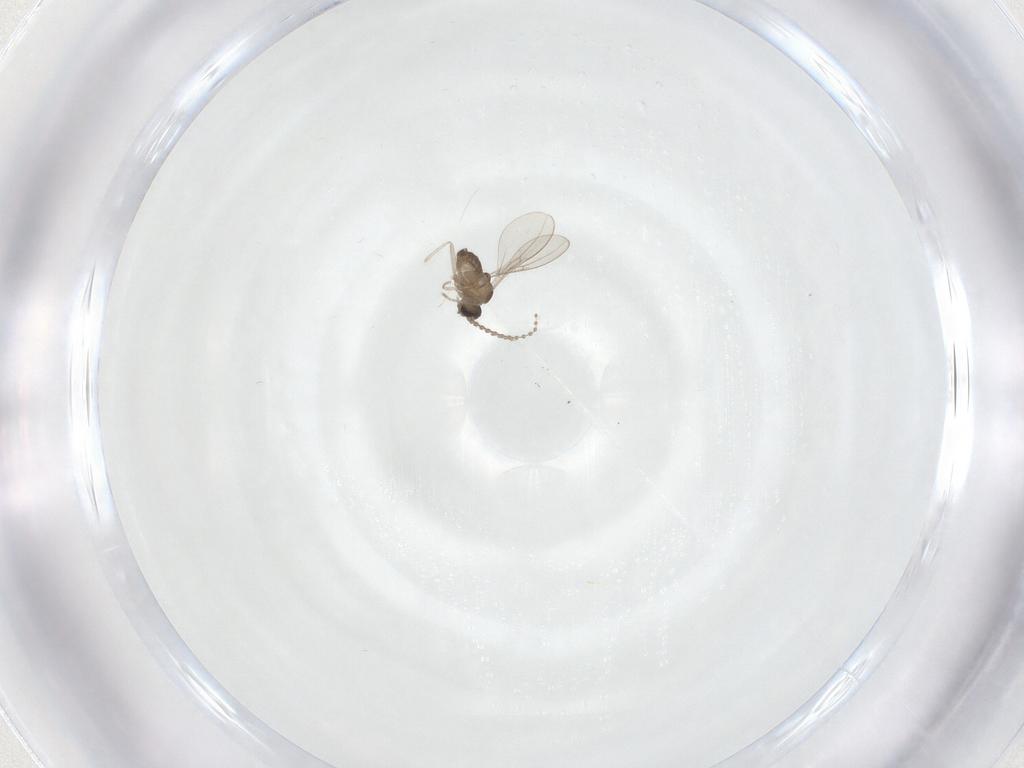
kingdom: Animalia
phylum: Arthropoda
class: Insecta
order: Diptera
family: Cecidomyiidae
